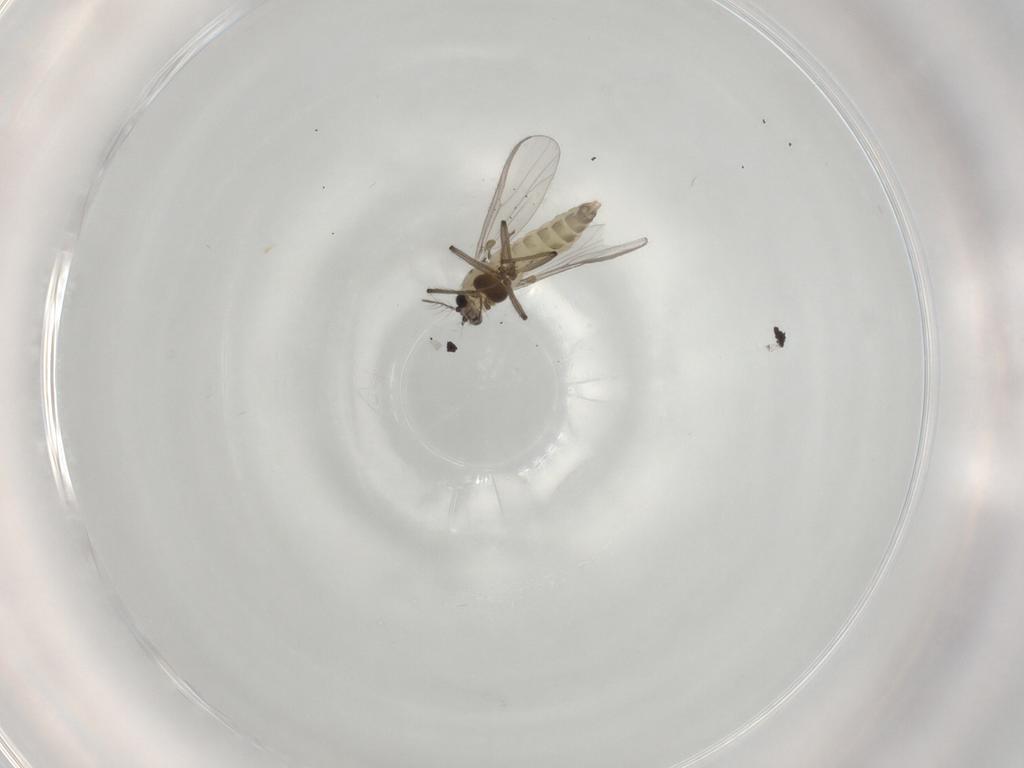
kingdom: Animalia
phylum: Arthropoda
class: Insecta
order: Diptera
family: Chironomidae
